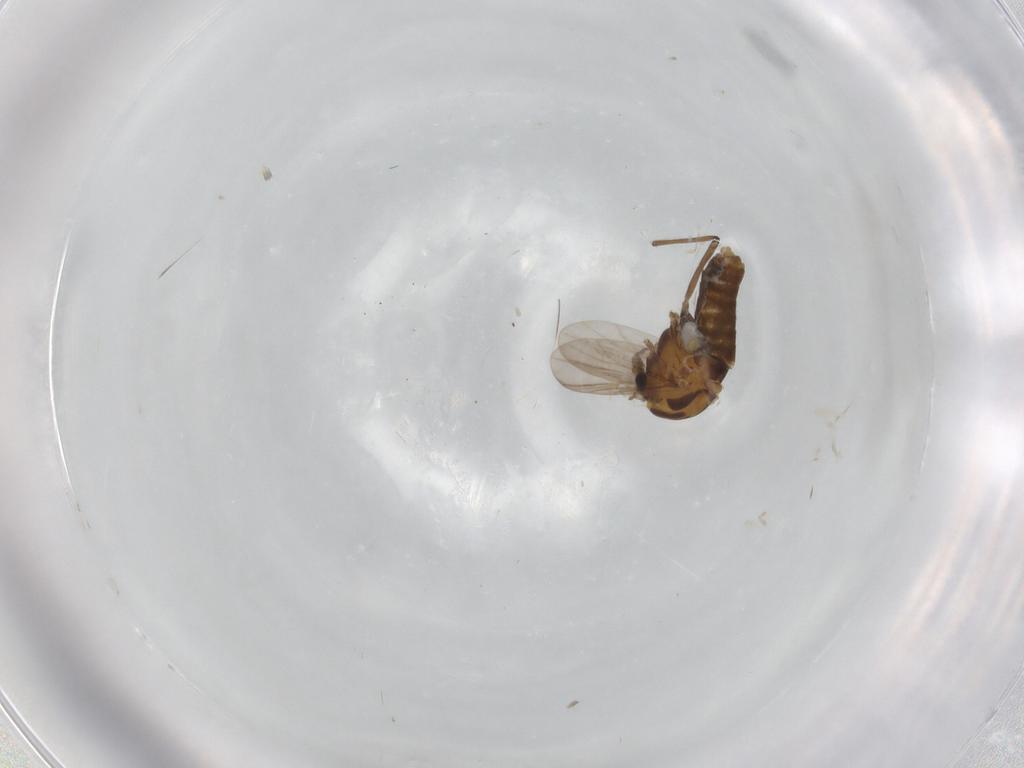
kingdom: Animalia
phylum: Arthropoda
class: Insecta
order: Diptera
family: Chironomidae
